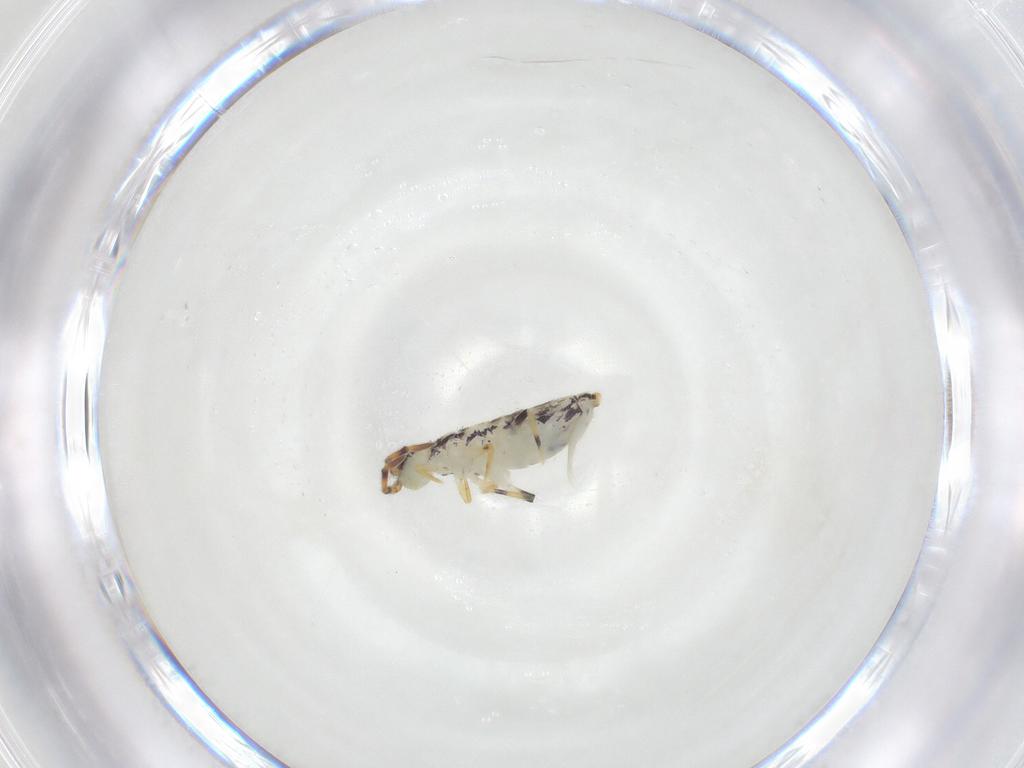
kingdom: Animalia
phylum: Arthropoda
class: Collembola
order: Entomobryomorpha
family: Isotomidae
